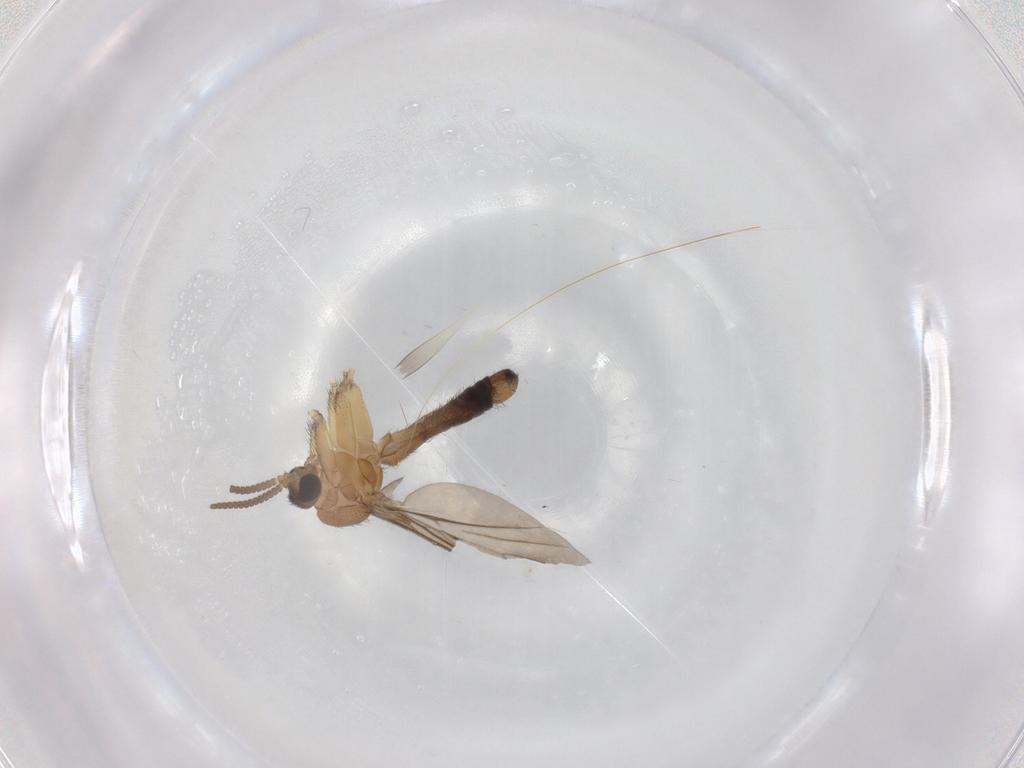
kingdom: Animalia
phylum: Arthropoda
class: Insecta
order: Diptera
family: Keroplatidae
